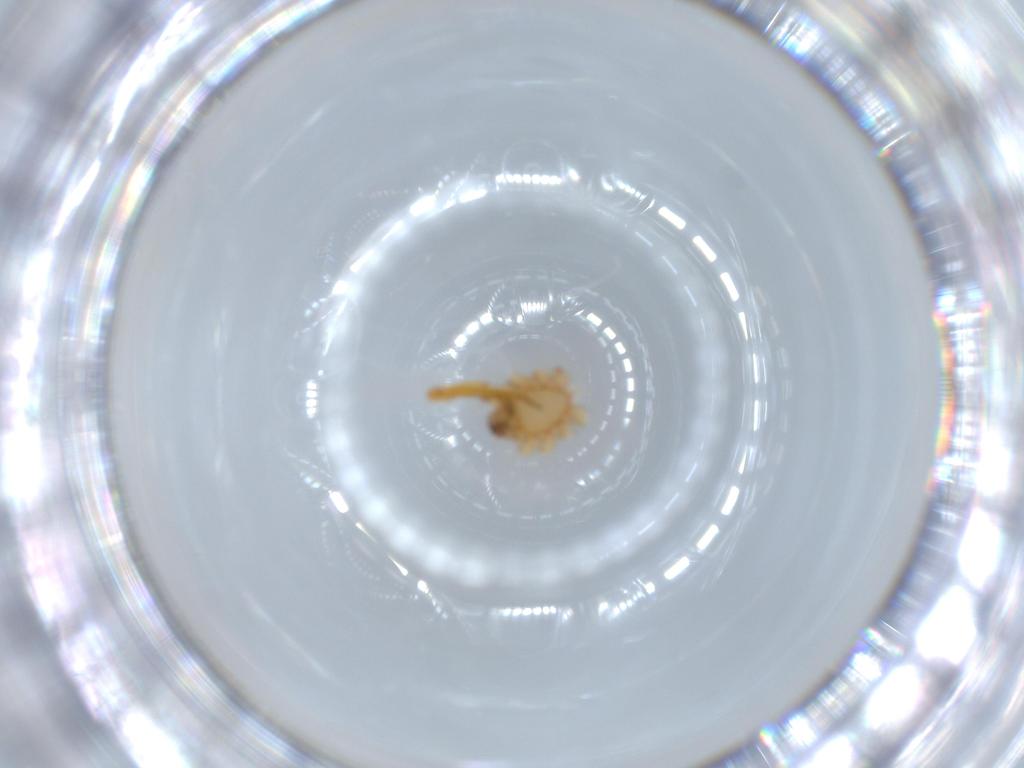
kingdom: Animalia
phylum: Arthropoda
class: Arachnida
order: Araneae
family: Oonopidae
